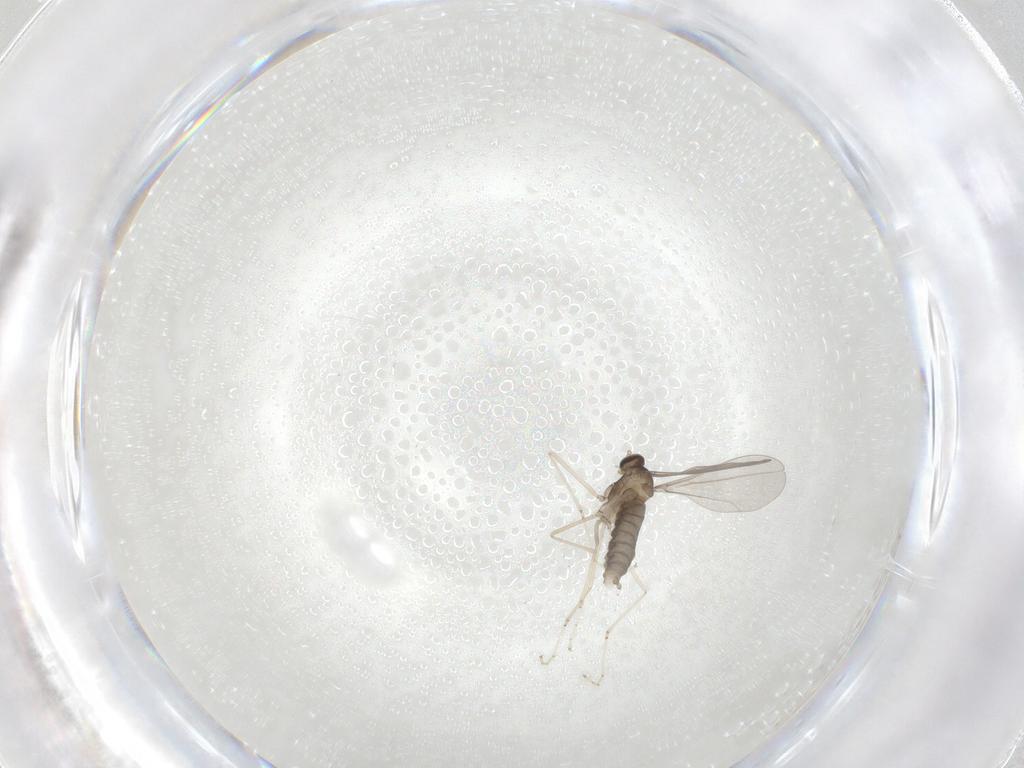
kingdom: Animalia
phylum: Arthropoda
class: Insecta
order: Diptera
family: Cecidomyiidae
